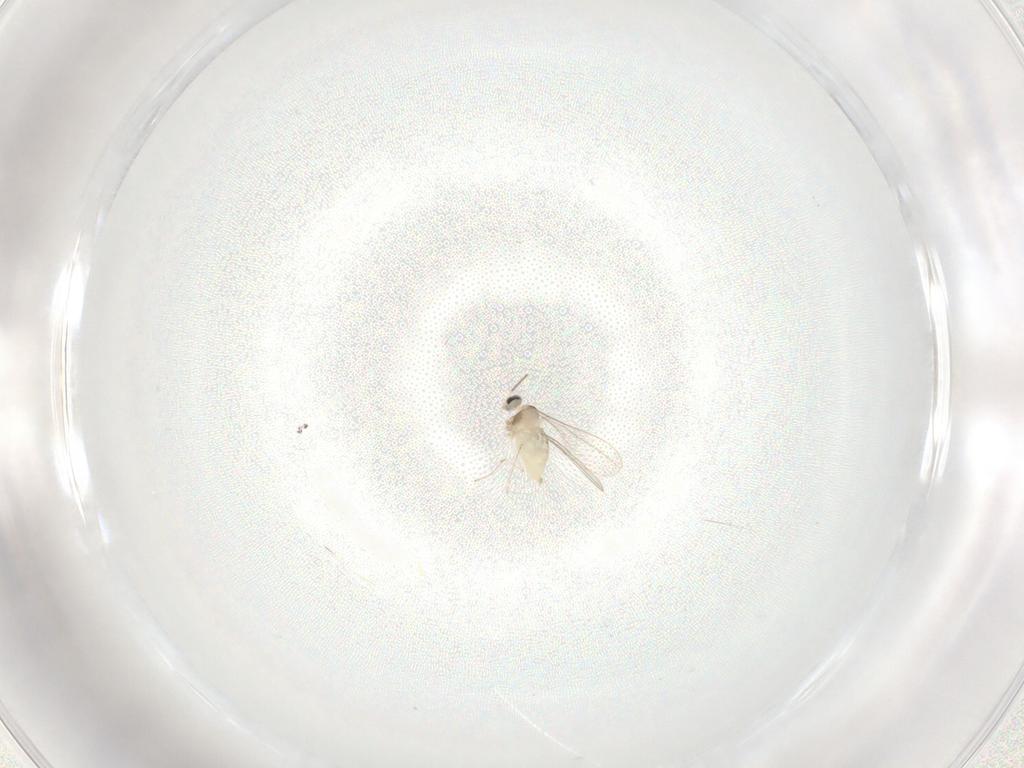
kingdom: Animalia
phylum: Arthropoda
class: Insecta
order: Diptera
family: Cecidomyiidae
